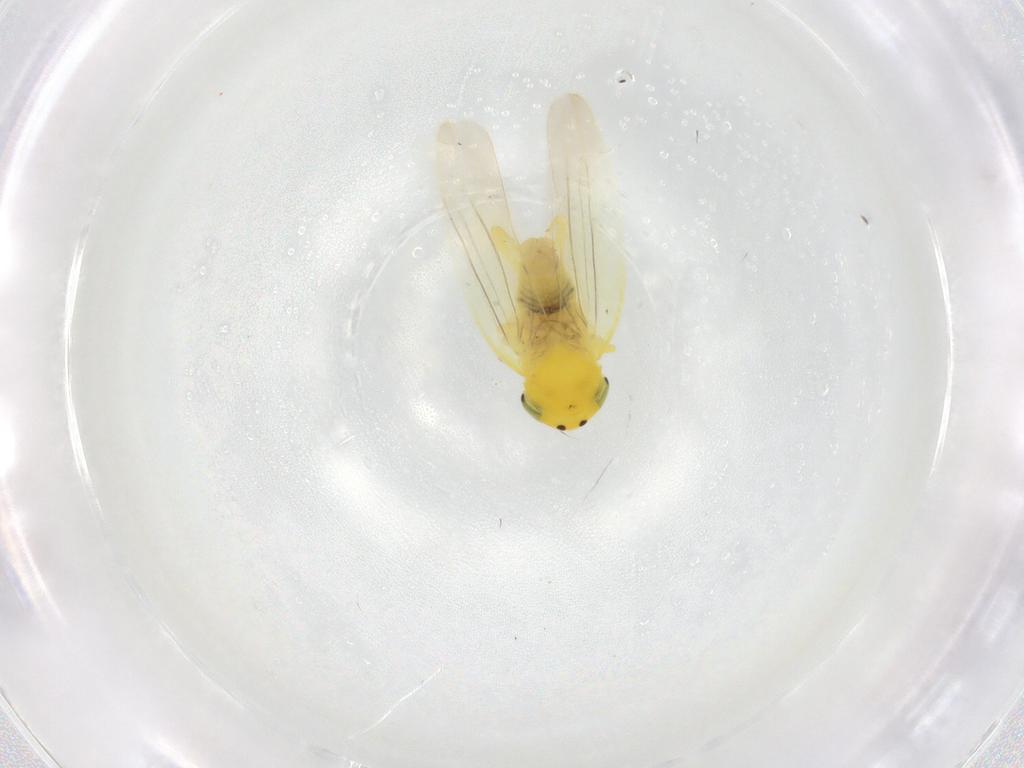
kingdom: Animalia
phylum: Arthropoda
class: Insecta
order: Hemiptera
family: Cicadellidae
